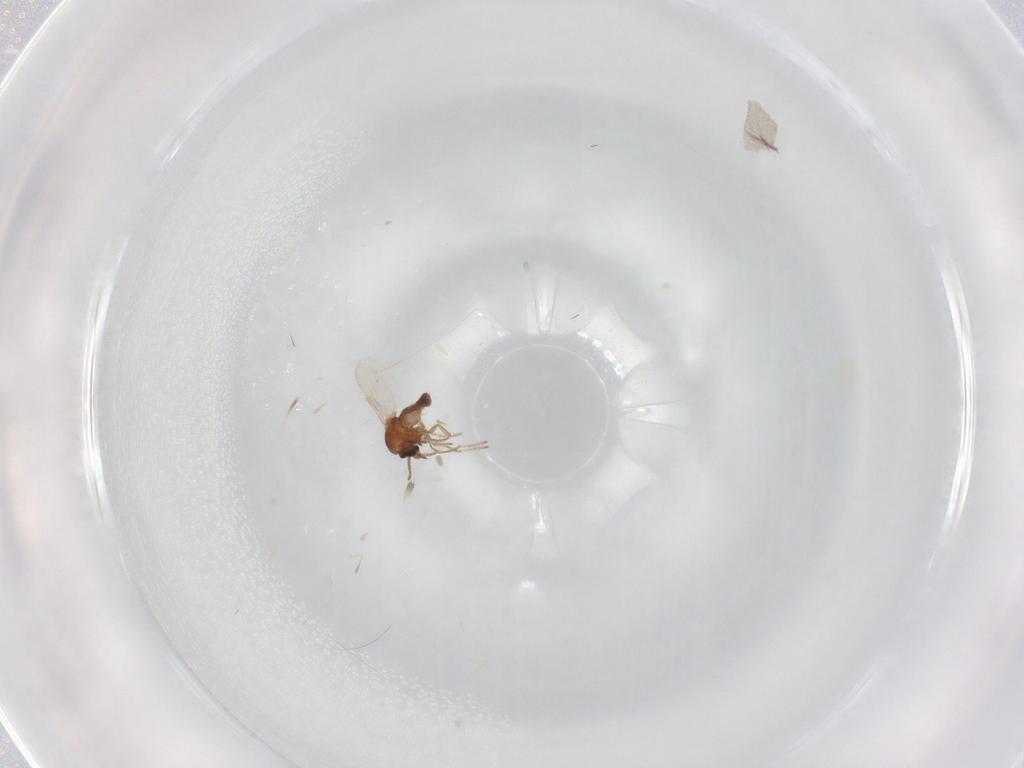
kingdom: Animalia
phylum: Arthropoda
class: Insecta
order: Diptera
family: Ceratopogonidae
